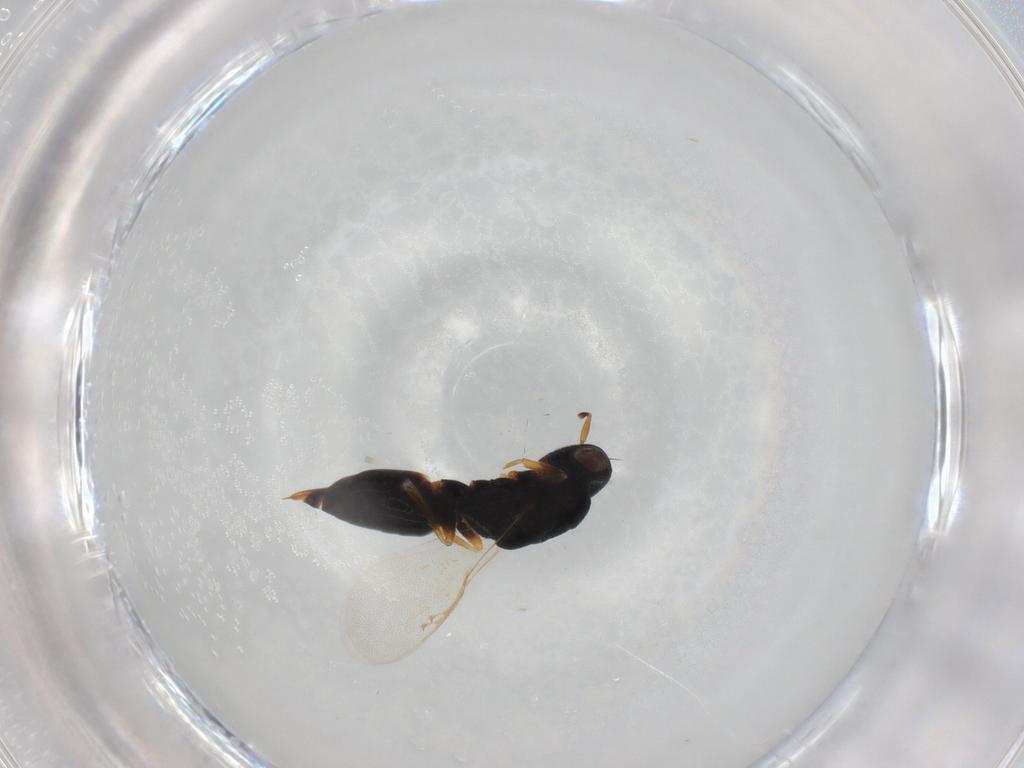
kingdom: Animalia
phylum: Arthropoda
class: Insecta
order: Hymenoptera
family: Eurytomidae
